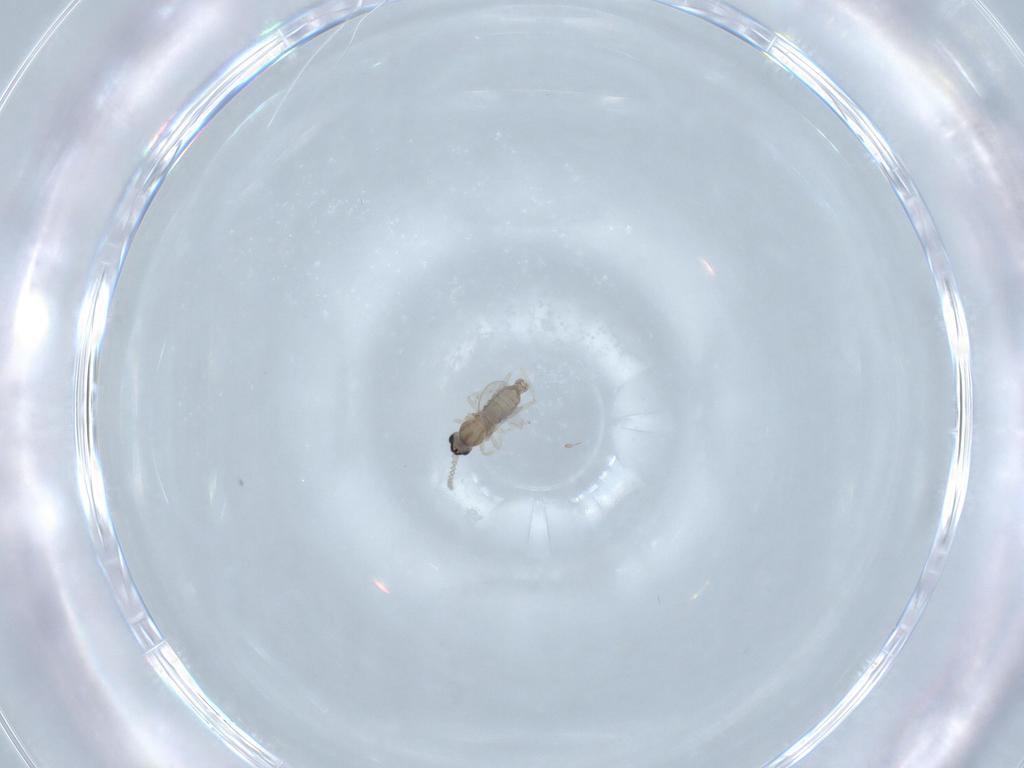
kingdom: Animalia
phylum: Arthropoda
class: Insecta
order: Diptera
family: Cecidomyiidae
